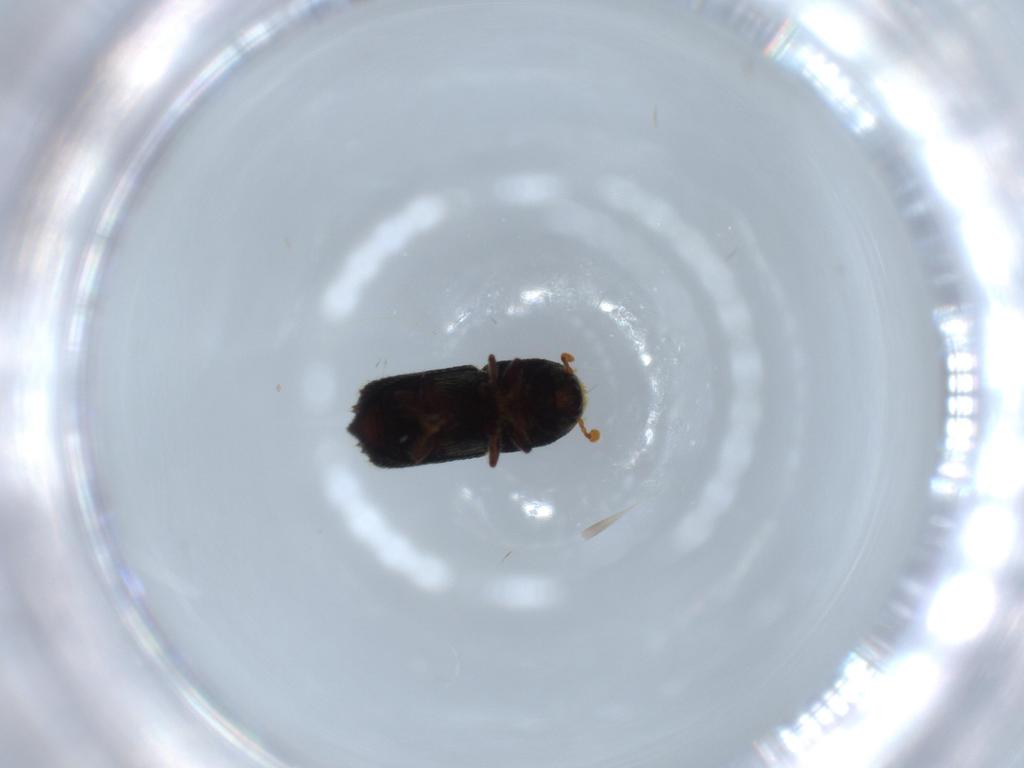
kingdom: Animalia
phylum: Arthropoda
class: Insecta
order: Coleoptera
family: Curculionidae
